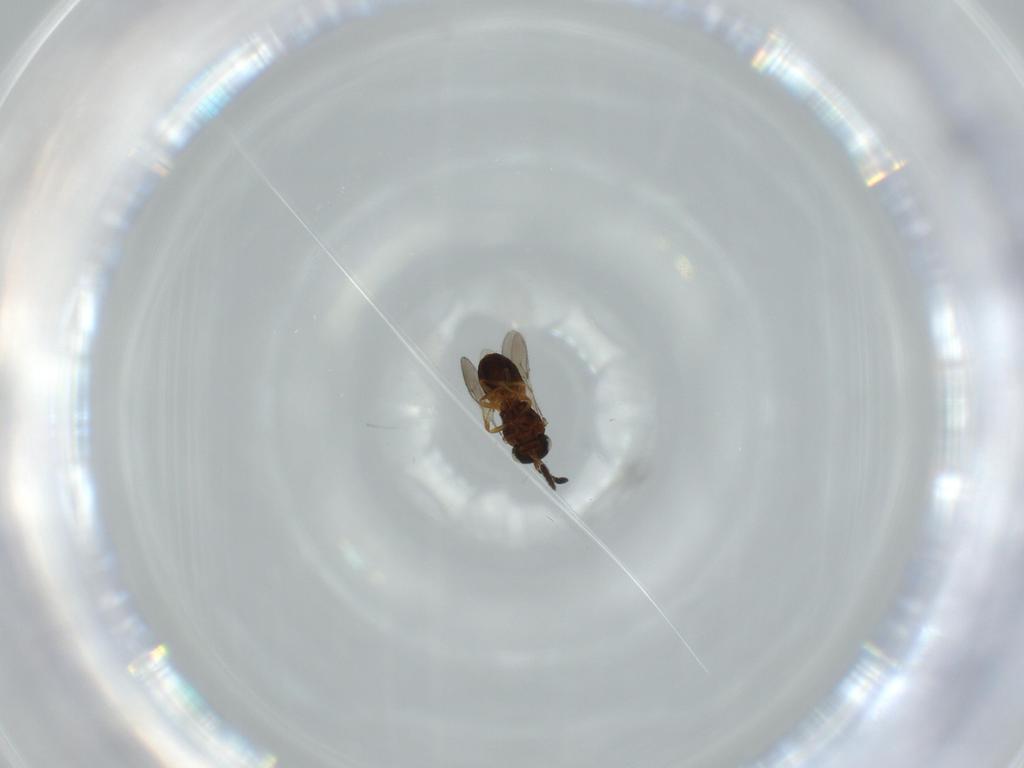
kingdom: Animalia
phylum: Arthropoda
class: Insecta
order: Hymenoptera
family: Scelionidae
